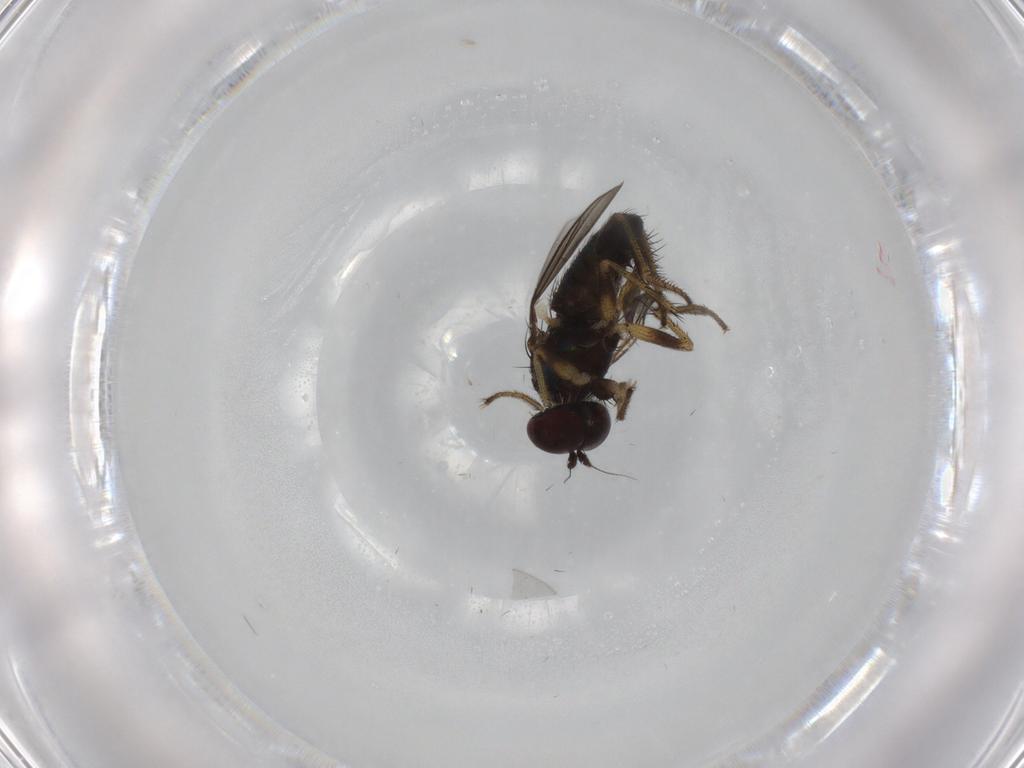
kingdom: Animalia
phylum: Arthropoda
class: Insecta
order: Diptera
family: Dolichopodidae
